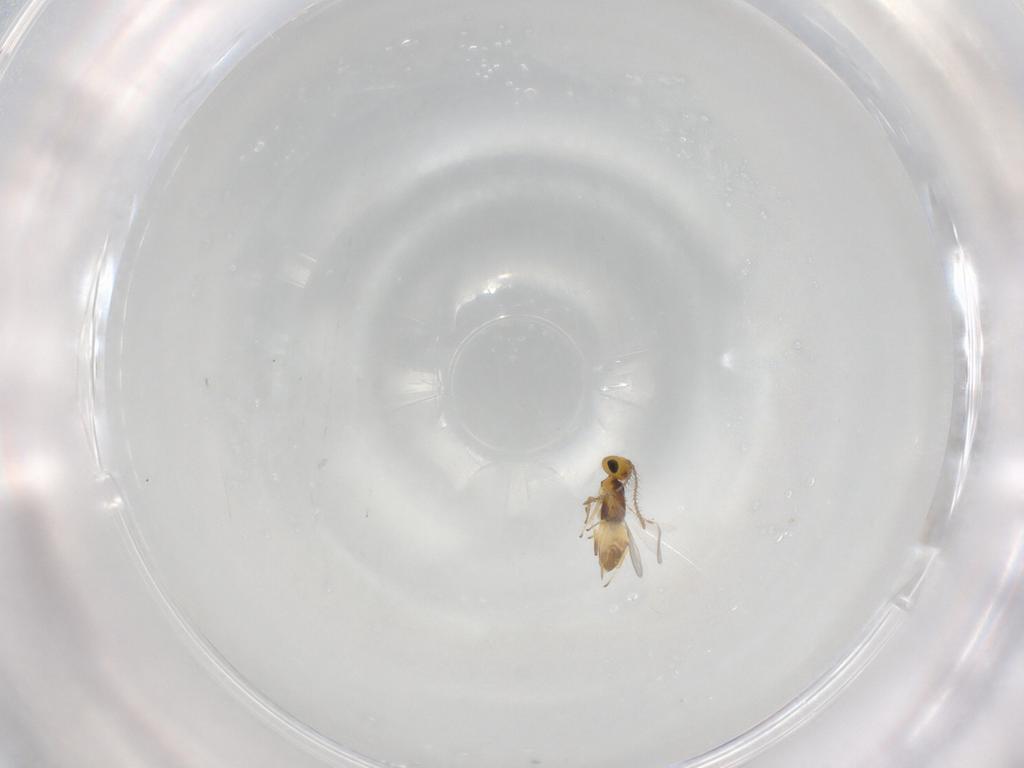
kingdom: Animalia
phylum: Arthropoda
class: Insecta
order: Hymenoptera
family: Encyrtidae
